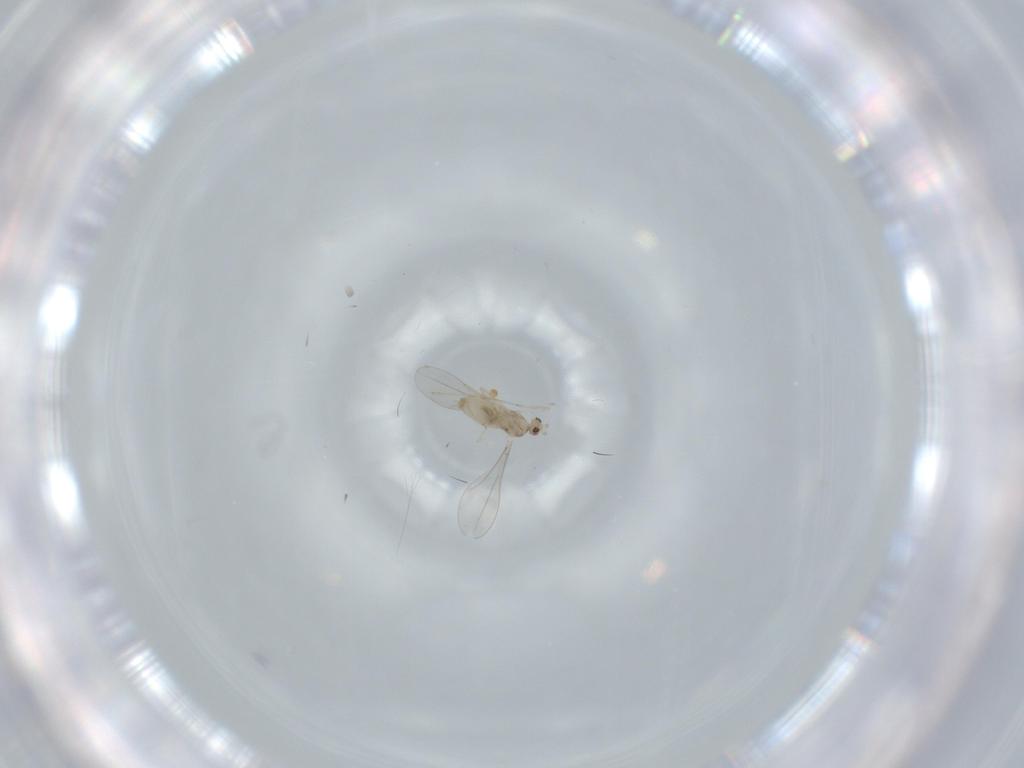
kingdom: Animalia
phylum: Arthropoda
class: Insecta
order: Diptera
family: Cecidomyiidae
